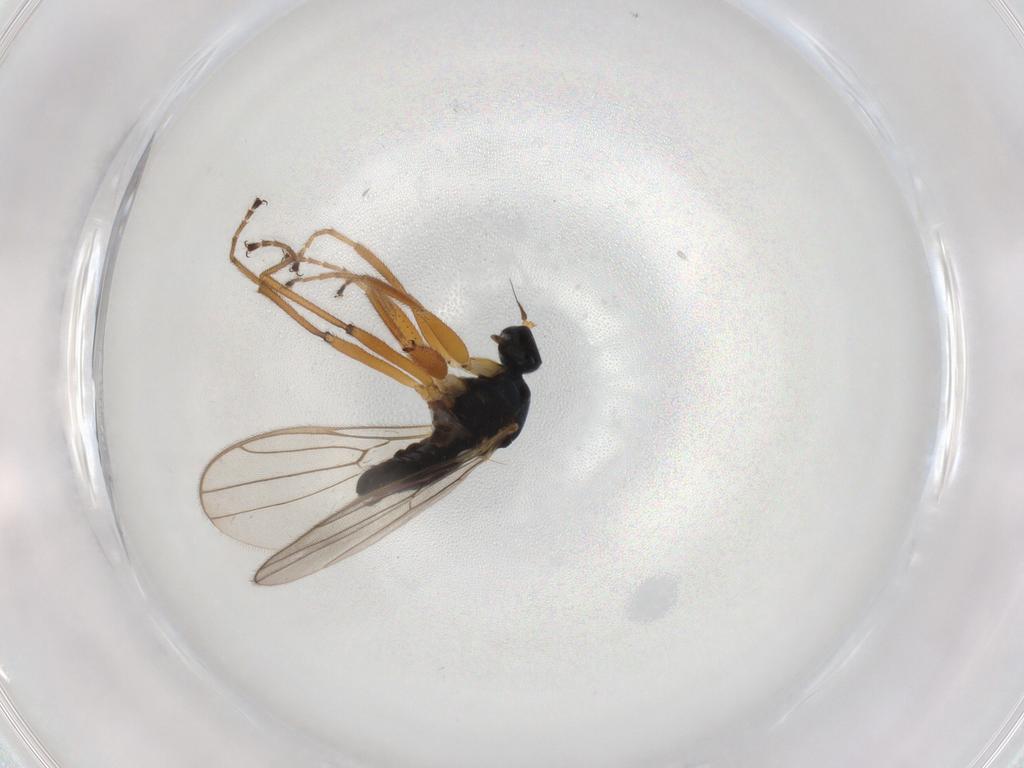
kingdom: Animalia
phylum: Arthropoda
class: Insecta
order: Diptera
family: Hybotidae
